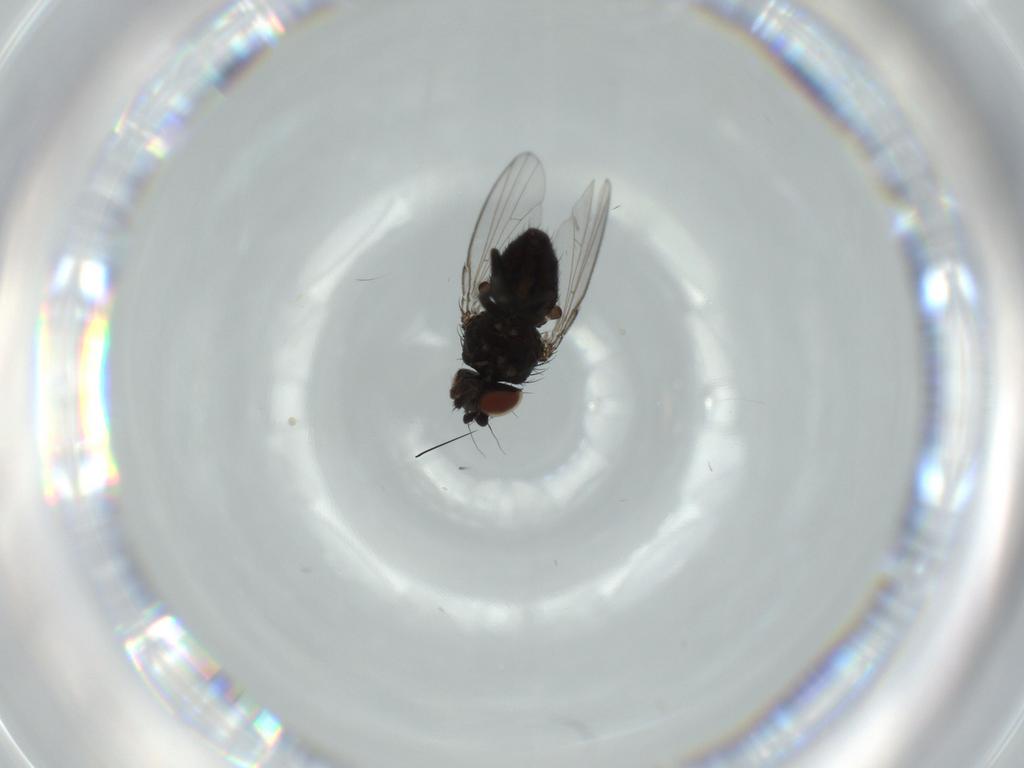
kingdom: Animalia
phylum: Arthropoda
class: Insecta
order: Diptera
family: Milichiidae
